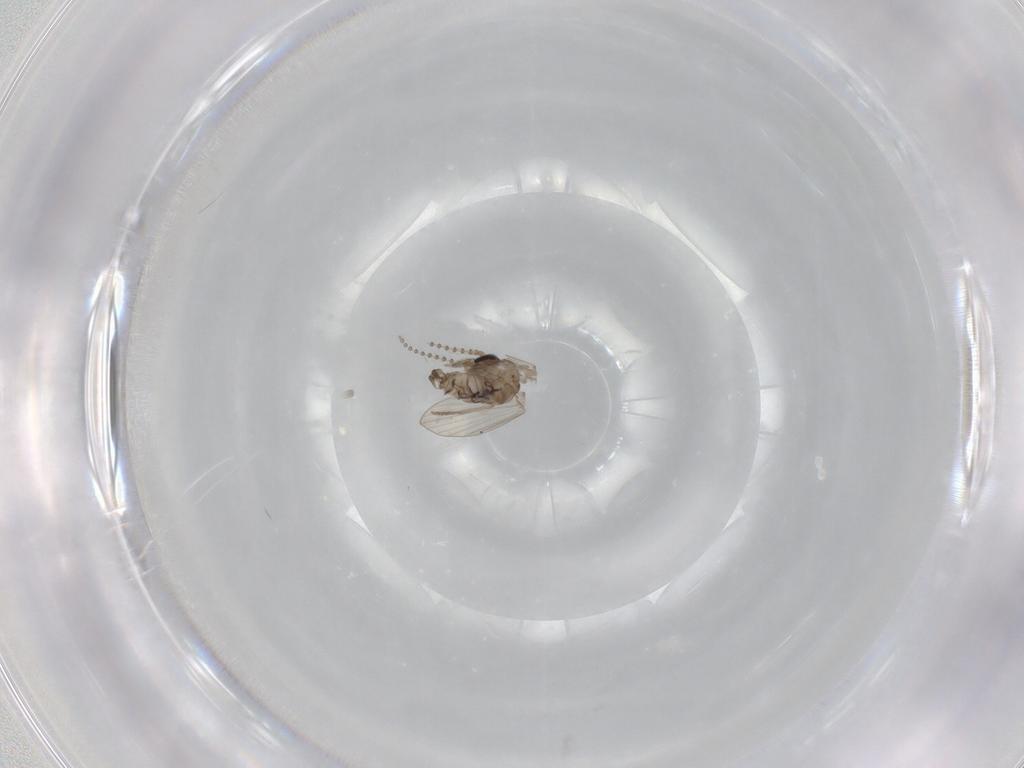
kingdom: Animalia
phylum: Arthropoda
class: Insecta
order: Diptera
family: Psychodidae
